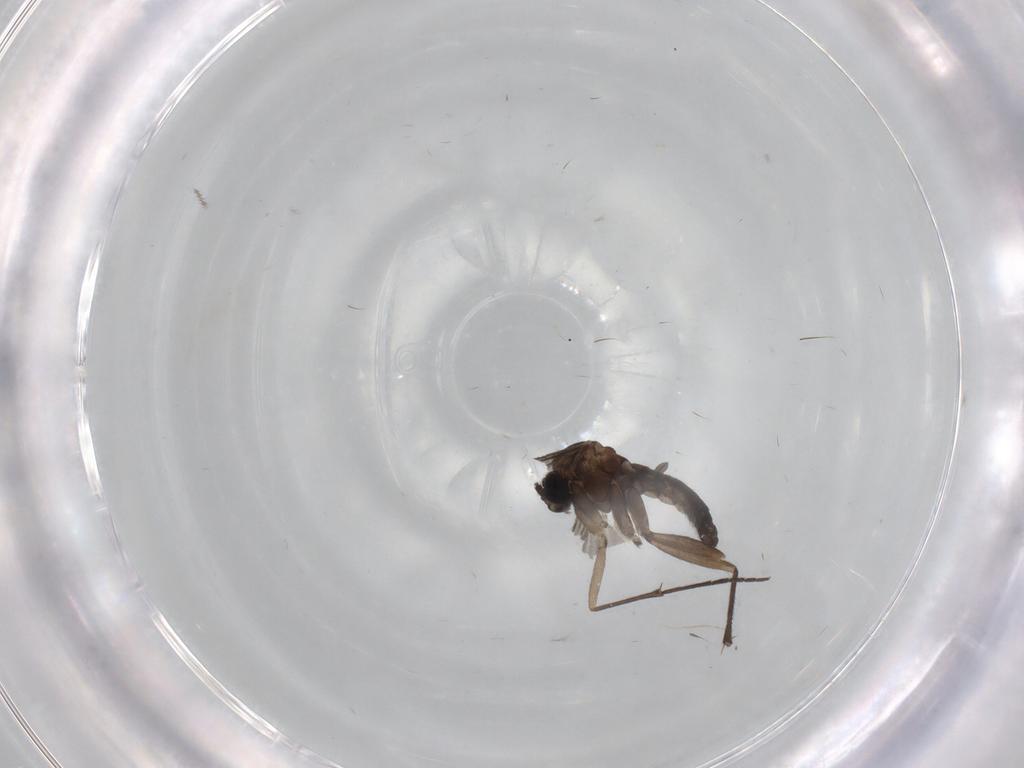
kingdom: Animalia
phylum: Arthropoda
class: Insecta
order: Diptera
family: Sciaridae
